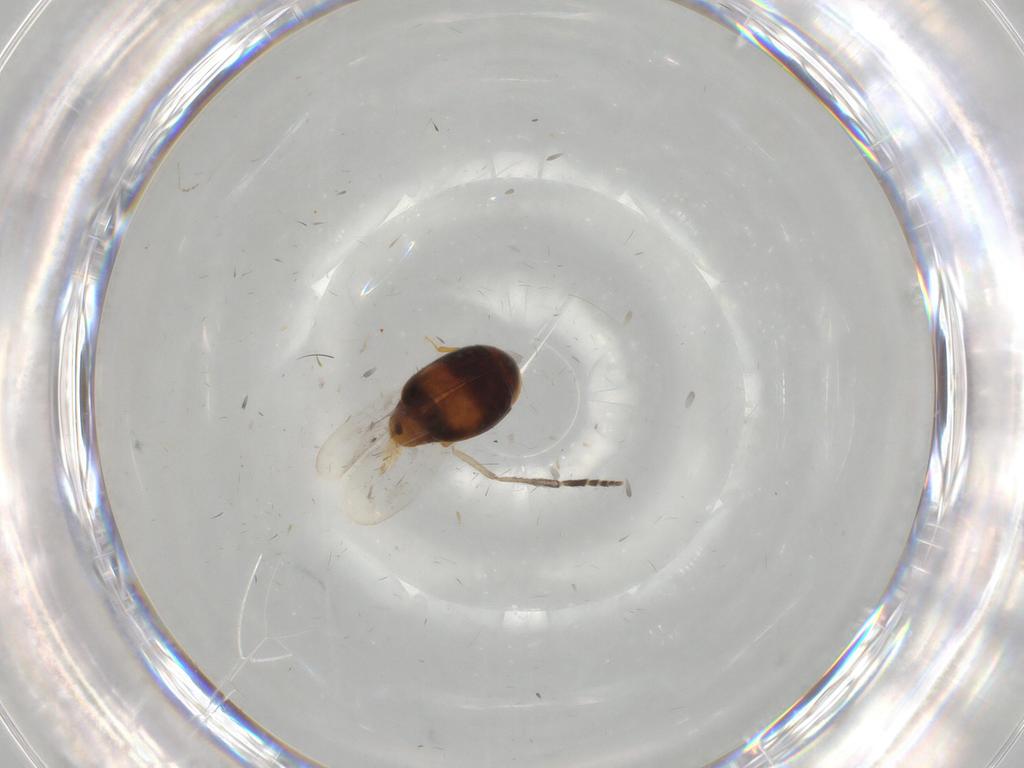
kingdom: Animalia
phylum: Arthropoda
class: Insecta
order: Coleoptera
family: Corylophidae
